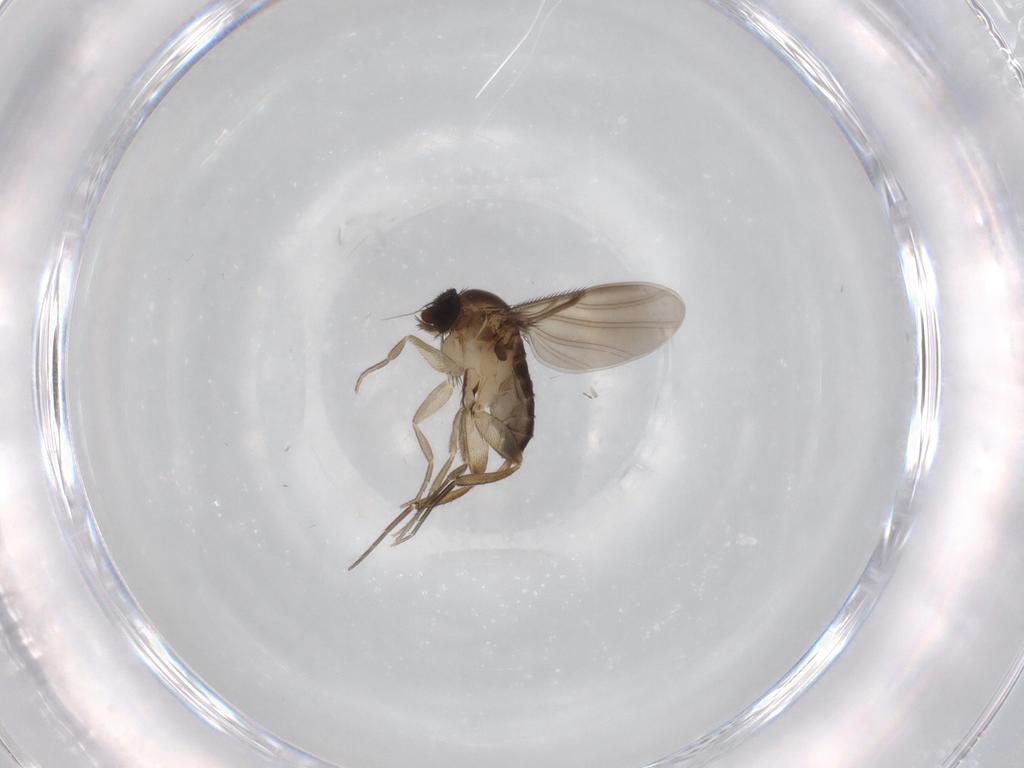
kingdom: Animalia
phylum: Arthropoda
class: Insecta
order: Diptera
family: Phoridae
